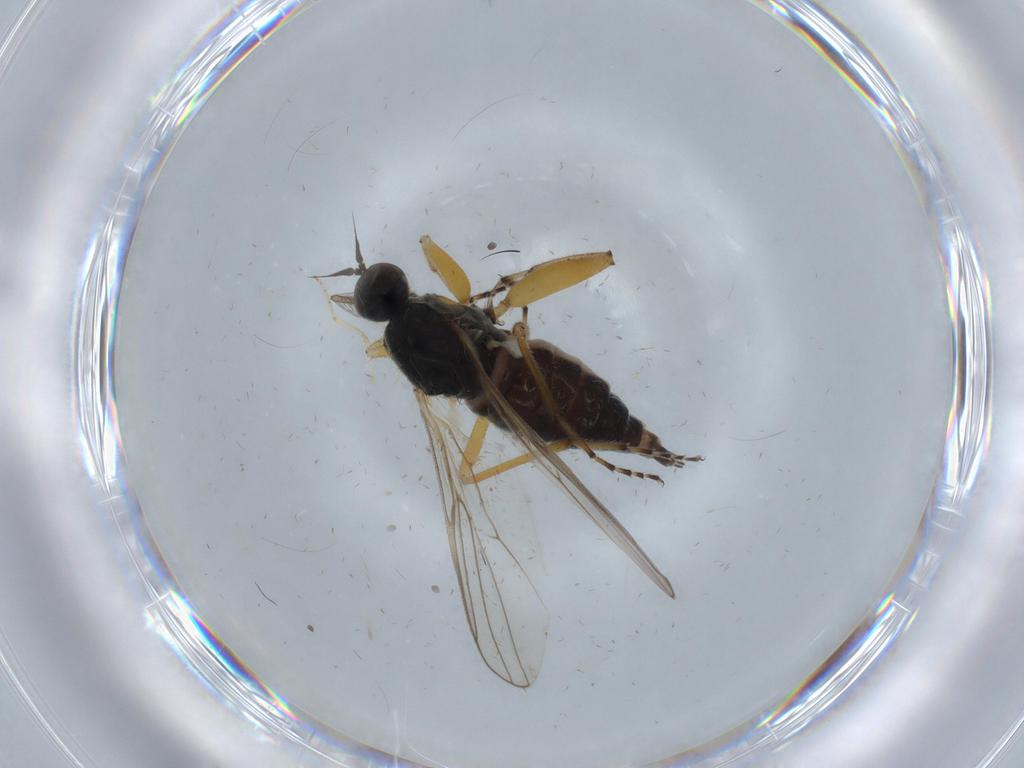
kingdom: Animalia
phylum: Arthropoda
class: Insecta
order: Diptera
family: Hybotidae
